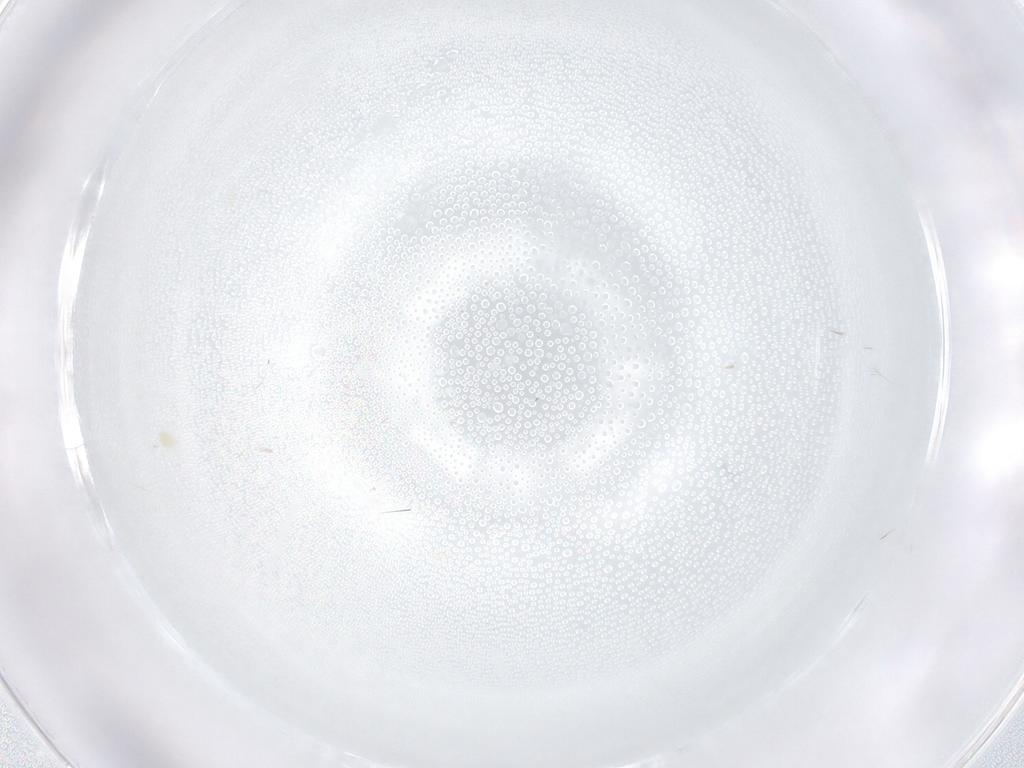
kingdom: Animalia
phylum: Arthropoda
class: Arachnida
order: Mesostigmata
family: Phytoseiidae
